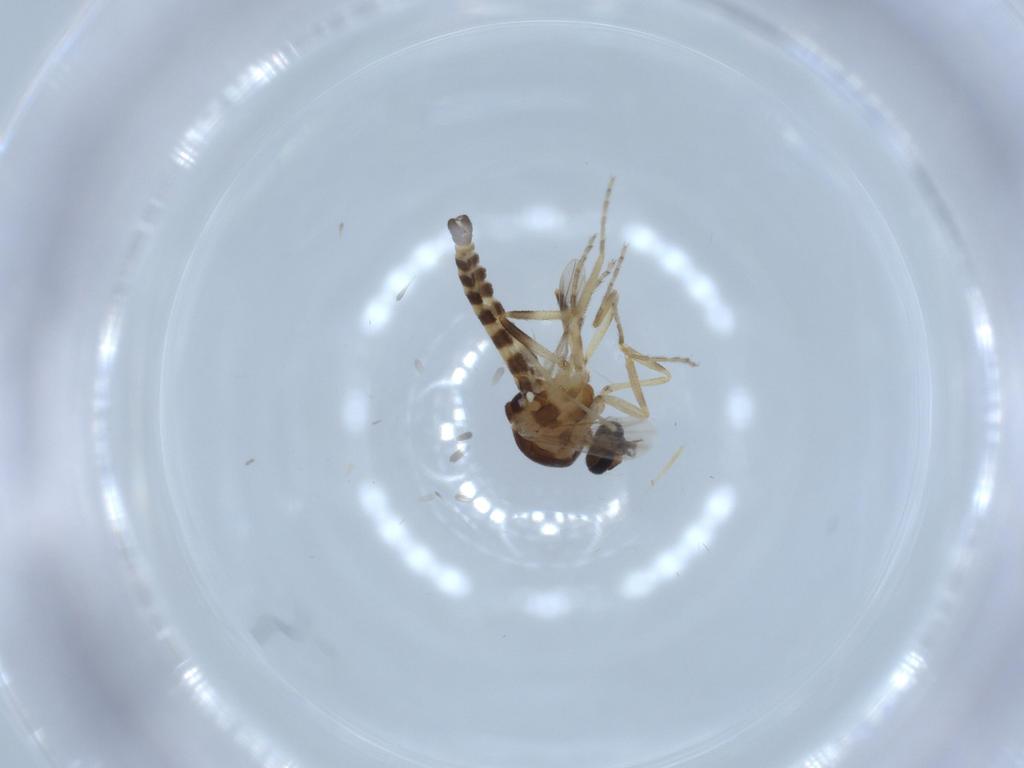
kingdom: Animalia
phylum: Arthropoda
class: Insecta
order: Diptera
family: Ceratopogonidae
